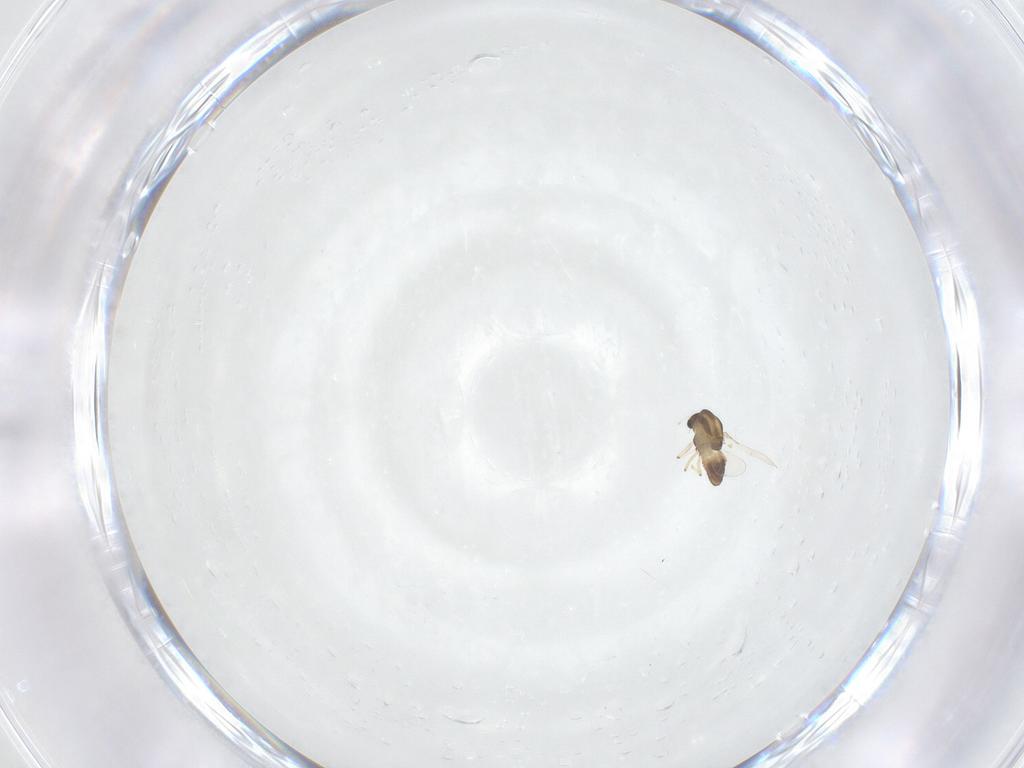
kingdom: Animalia
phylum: Arthropoda
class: Insecta
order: Diptera
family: Chironomidae
